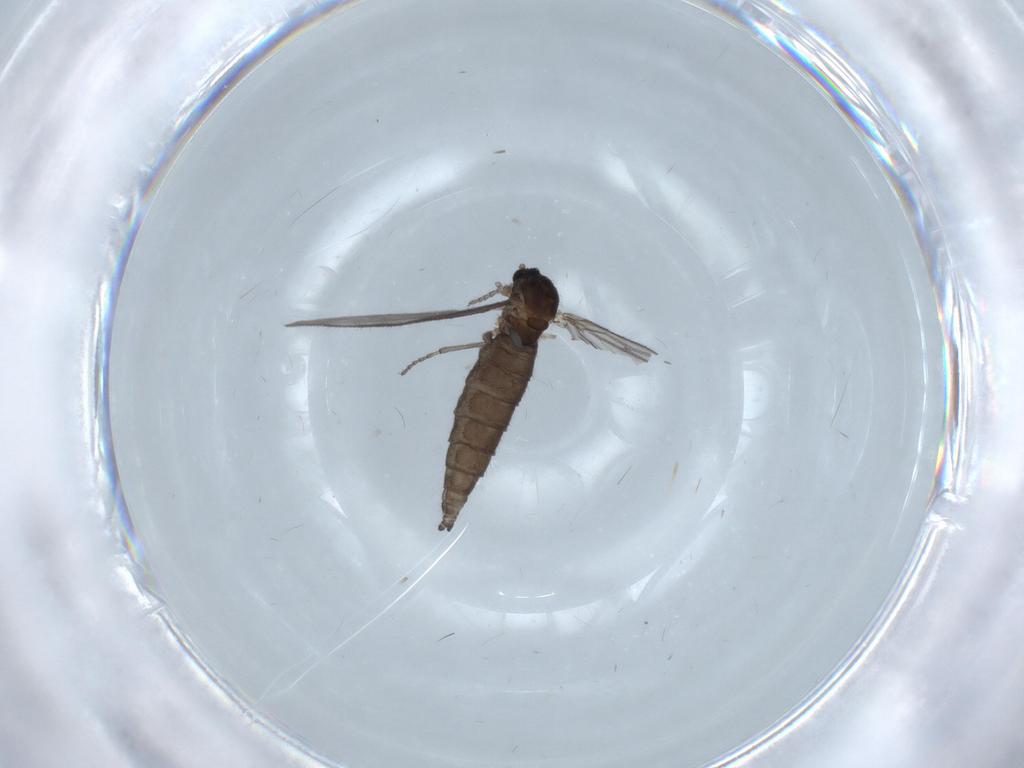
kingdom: Animalia
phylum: Arthropoda
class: Insecta
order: Diptera
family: Sciaridae
